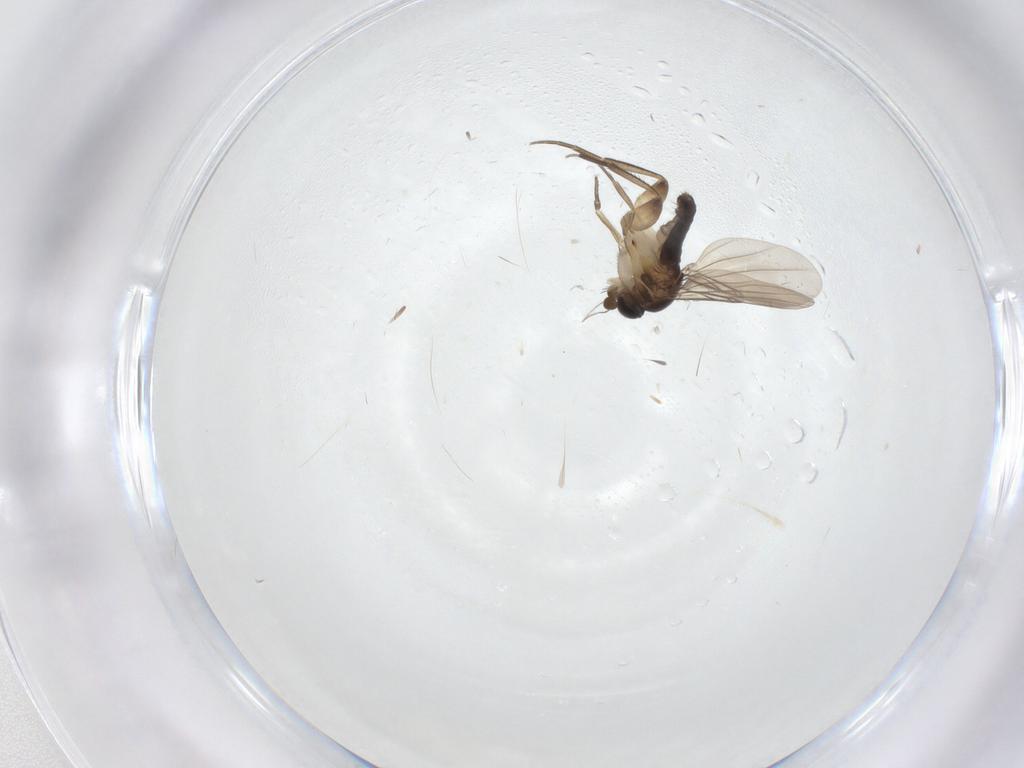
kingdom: Animalia
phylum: Arthropoda
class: Insecta
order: Diptera
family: Phoridae
